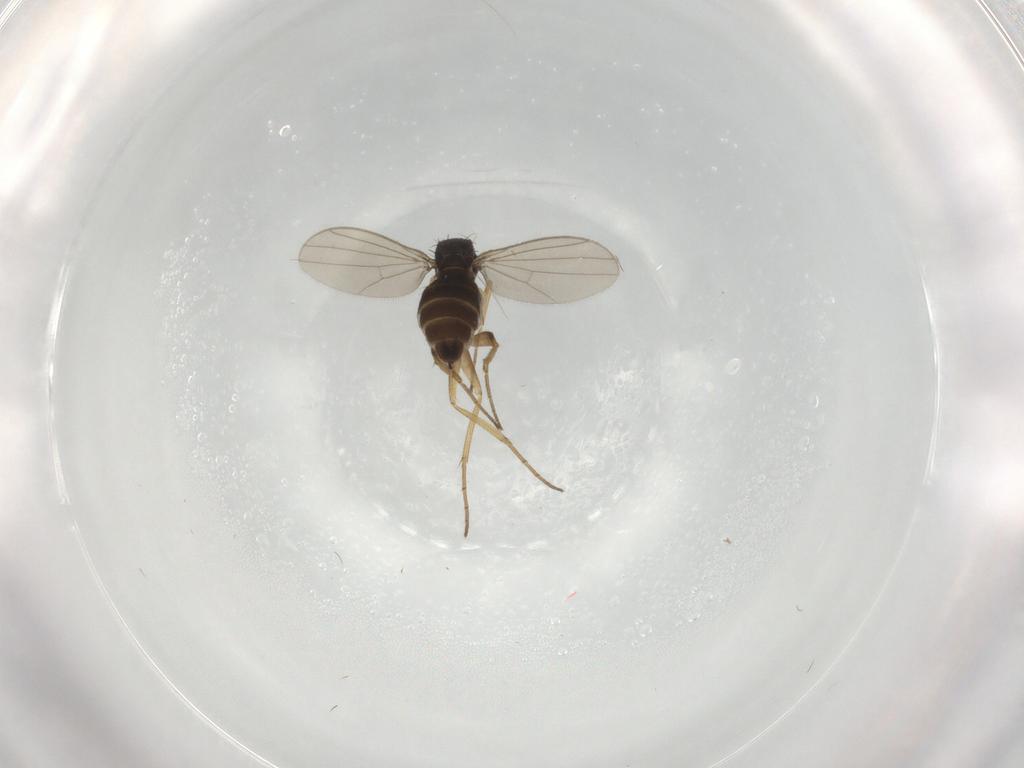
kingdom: Animalia
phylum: Arthropoda
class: Insecta
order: Diptera
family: Dolichopodidae
